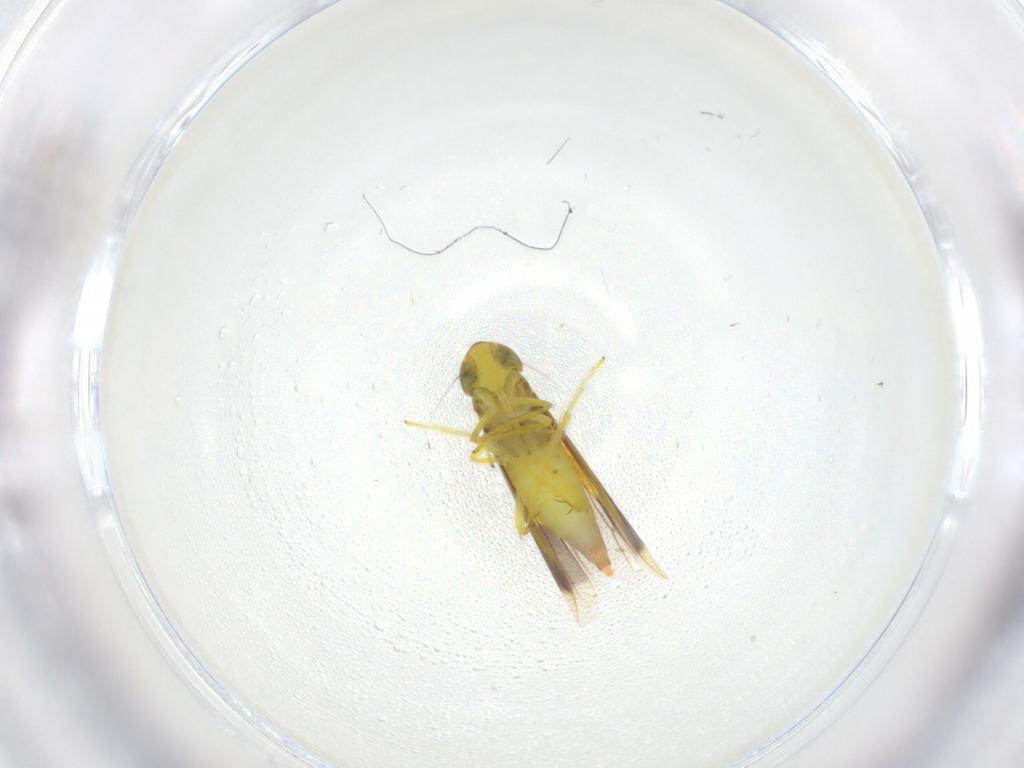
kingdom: Animalia
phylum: Arthropoda
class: Insecta
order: Hemiptera
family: Cicadellidae
